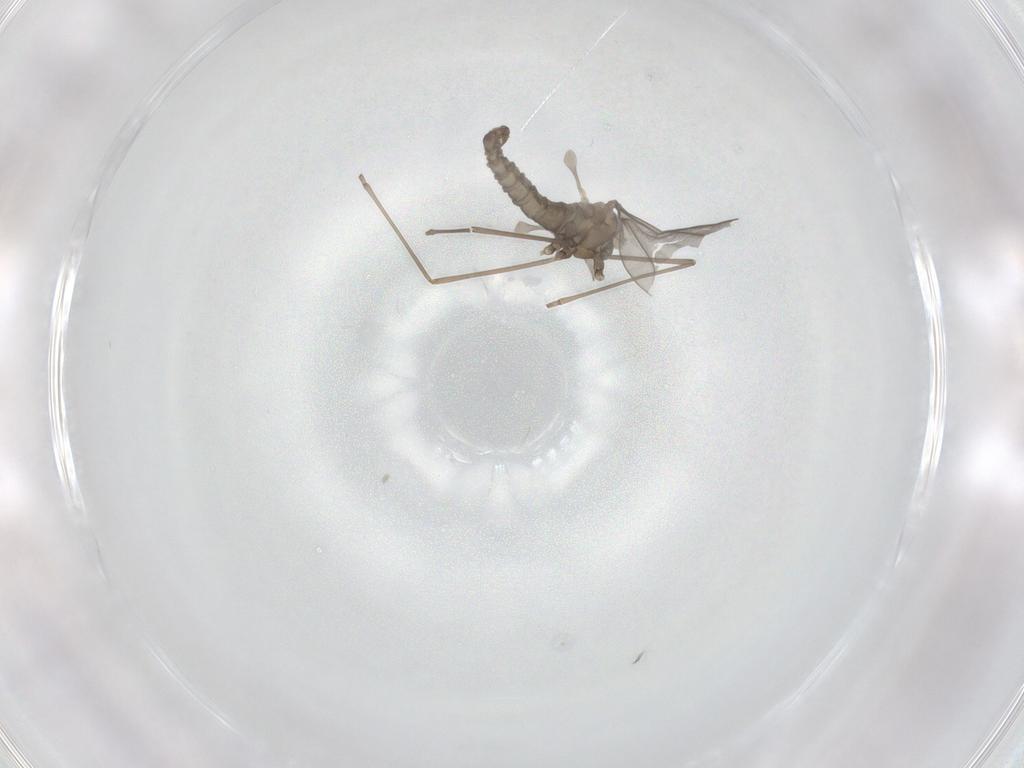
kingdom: Animalia
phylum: Arthropoda
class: Insecta
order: Diptera
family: Cecidomyiidae
